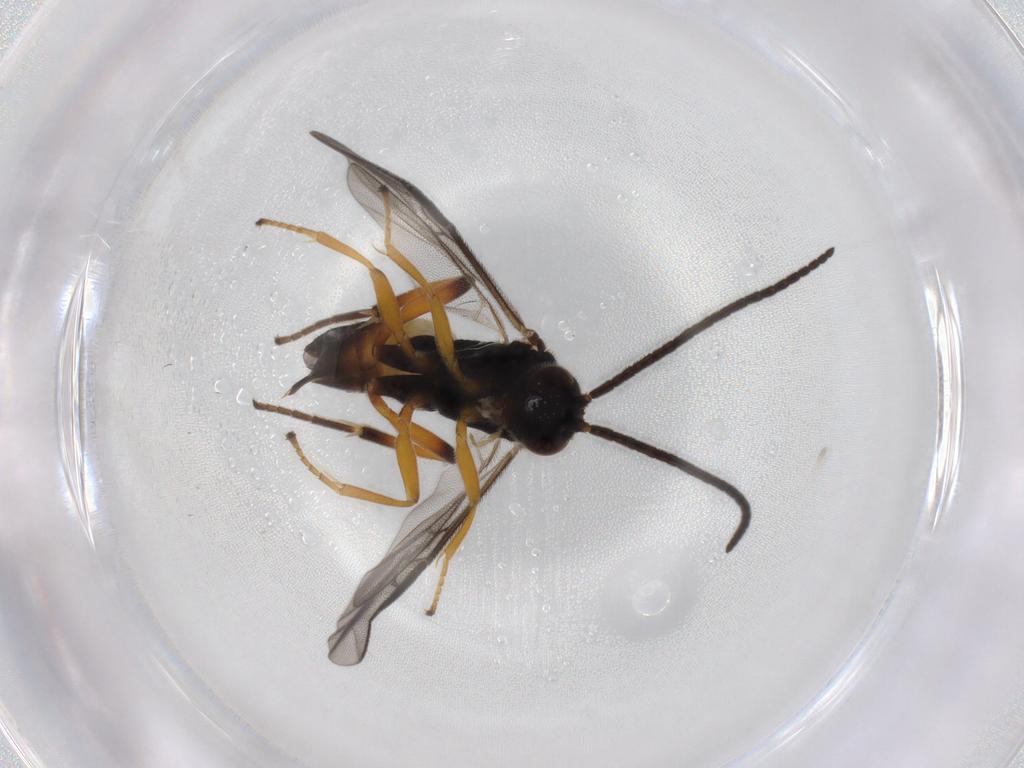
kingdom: Animalia
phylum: Arthropoda
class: Insecta
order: Hymenoptera
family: Braconidae
